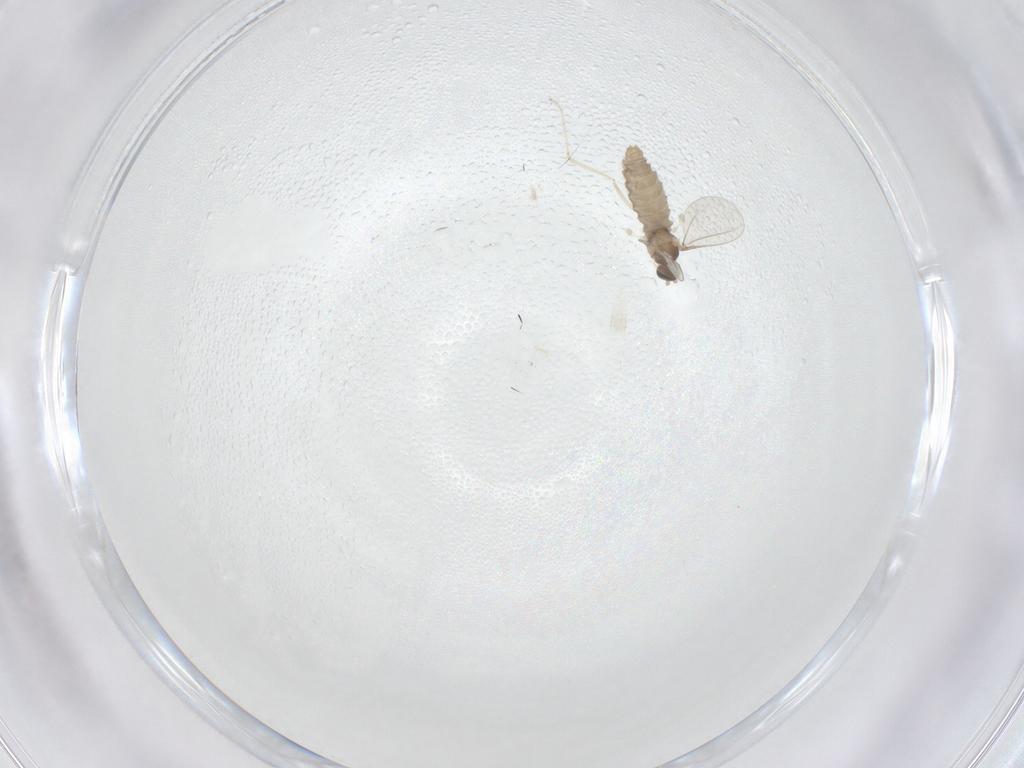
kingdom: Animalia
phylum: Arthropoda
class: Insecta
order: Diptera
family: Cecidomyiidae
